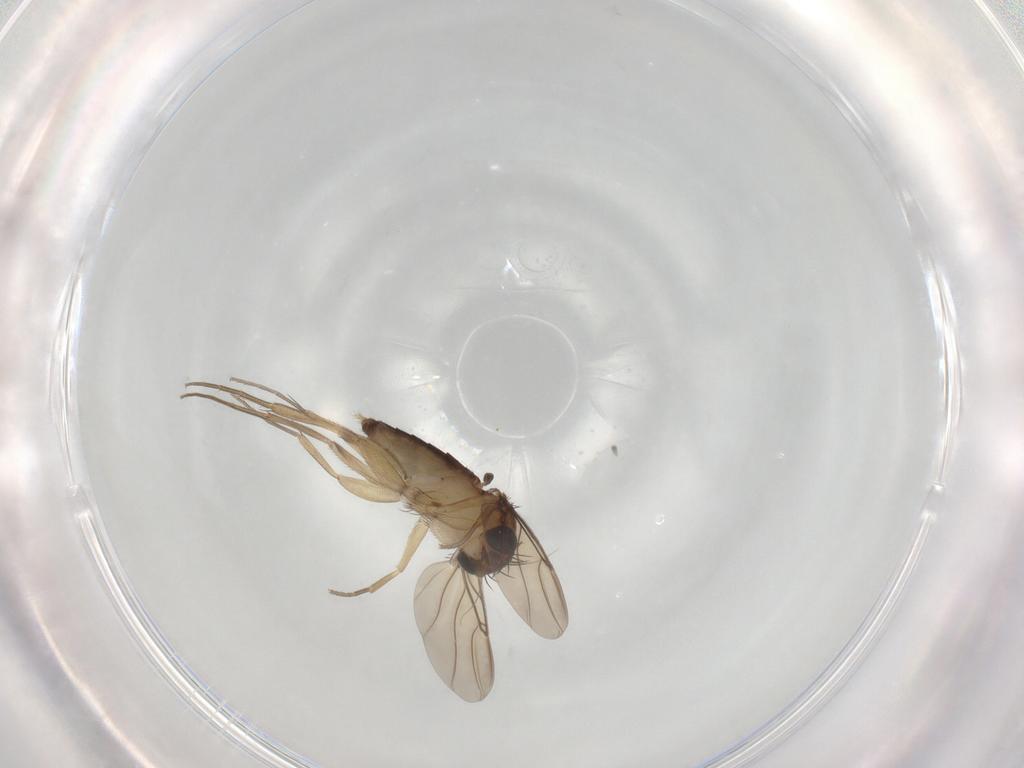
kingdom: Animalia
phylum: Arthropoda
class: Insecta
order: Diptera
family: Phoridae
